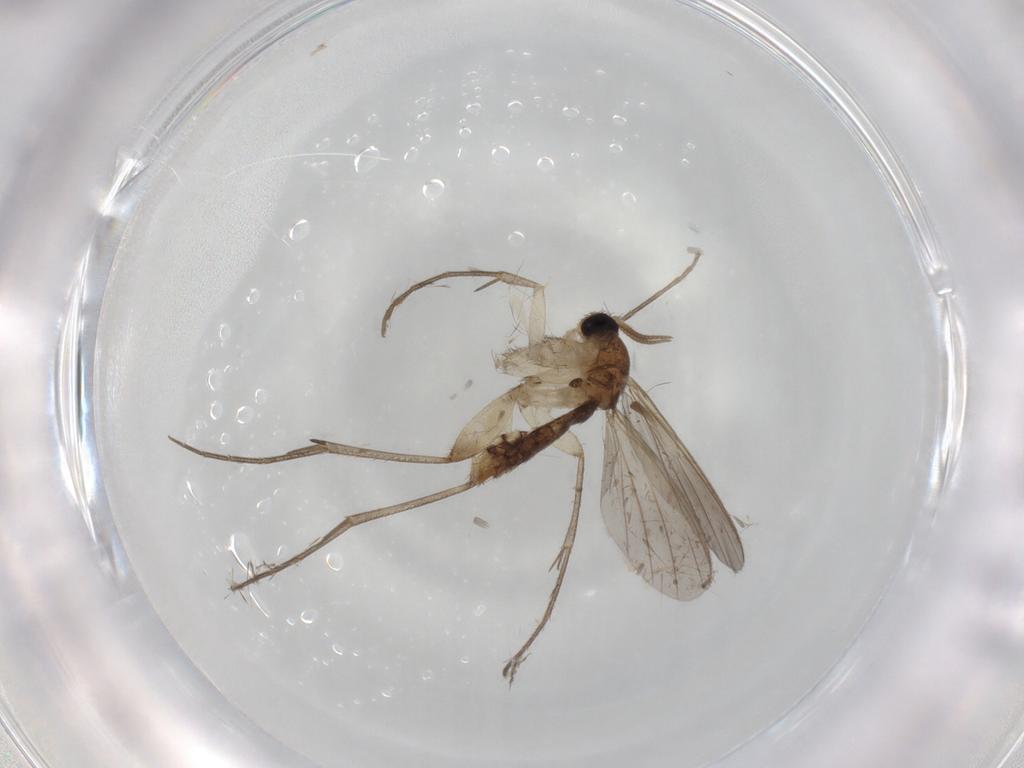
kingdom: Animalia
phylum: Arthropoda
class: Insecta
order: Diptera
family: Mycetophilidae
